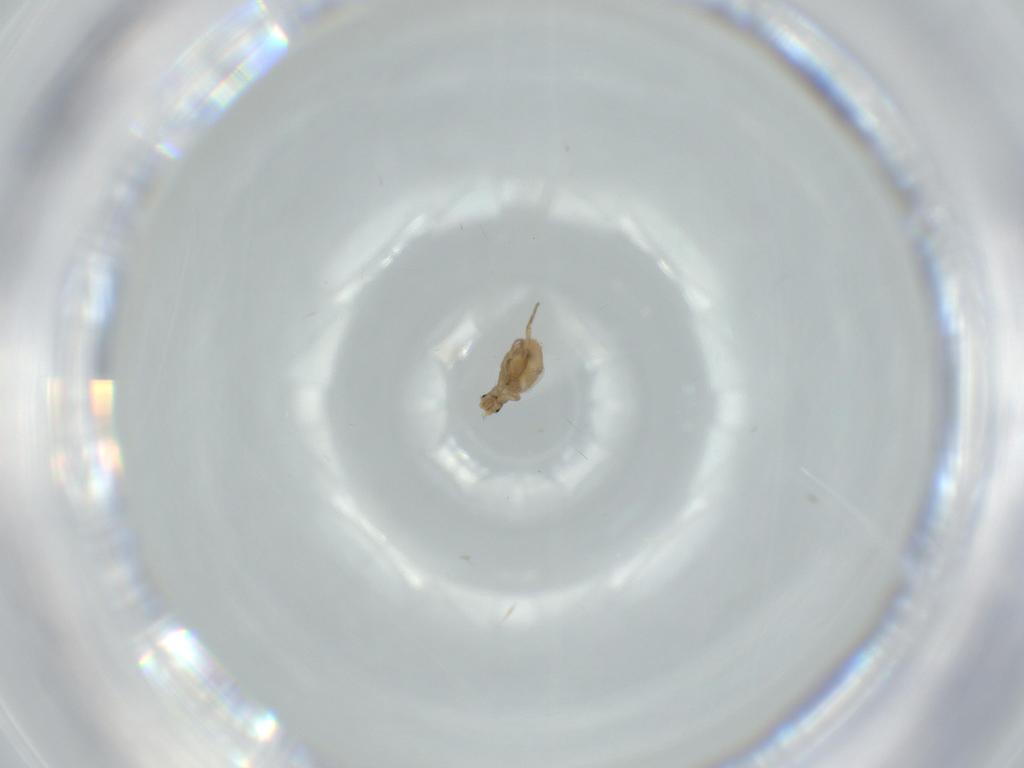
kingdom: Animalia
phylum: Arthropoda
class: Insecta
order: Diptera
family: Phoridae
